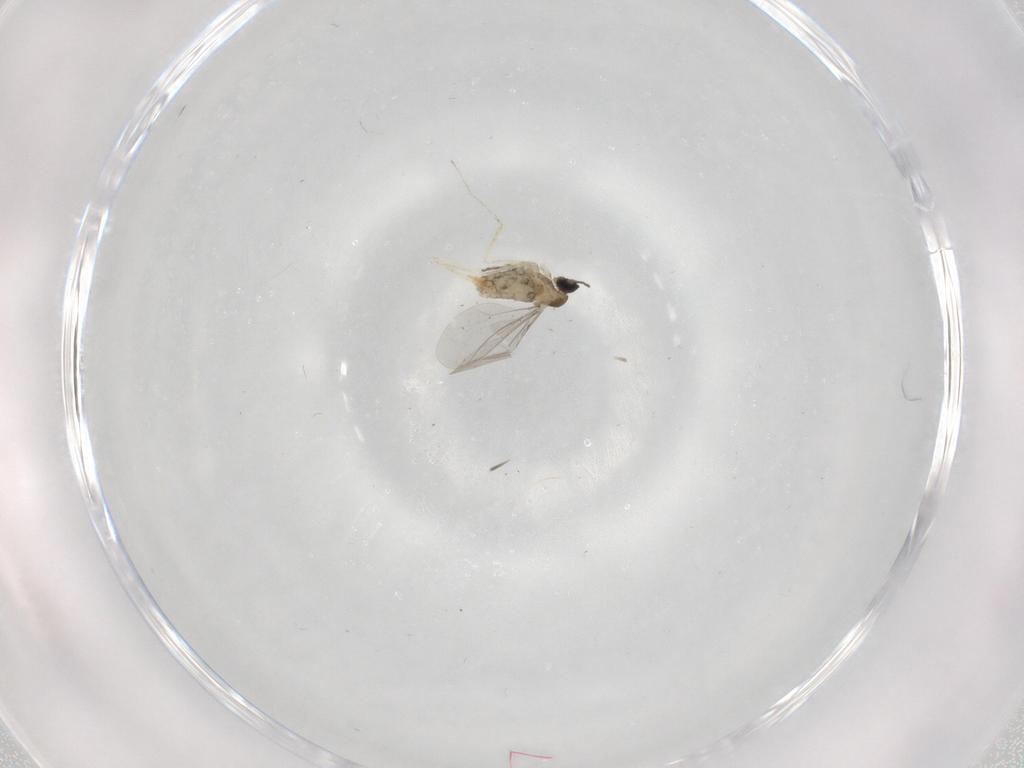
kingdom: Animalia
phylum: Arthropoda
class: Insecta
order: Diptera
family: Cecidomyiidae
